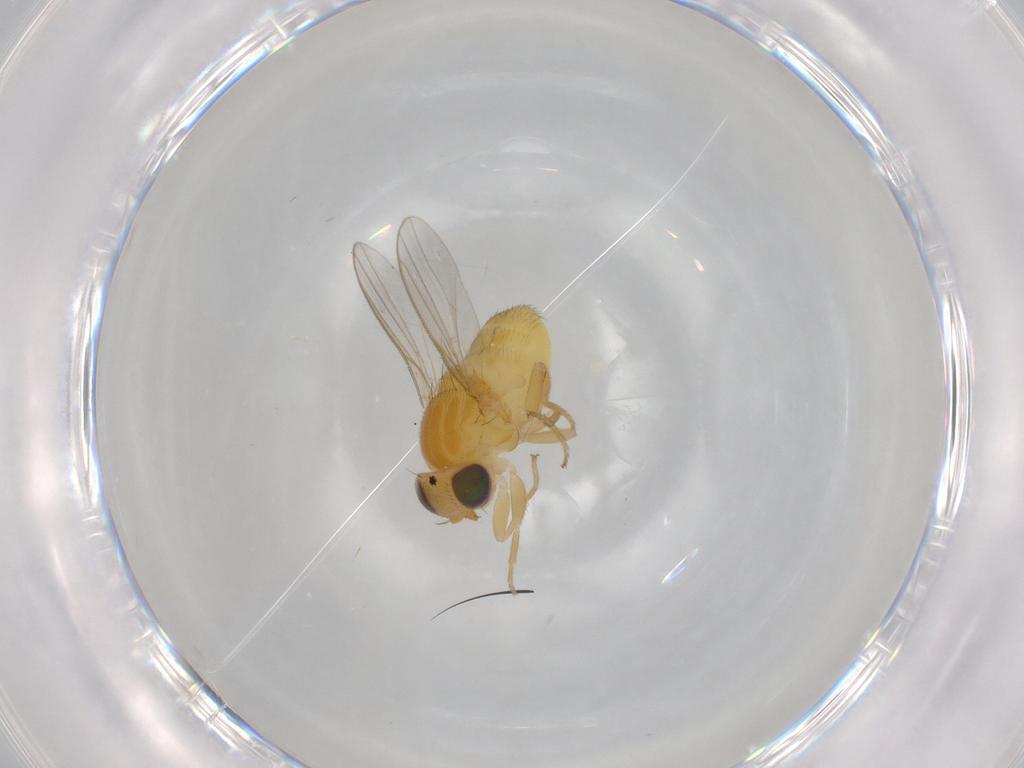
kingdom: Animalia
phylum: Arthropoda
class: Insecta
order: Diptera
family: Chloropidae
